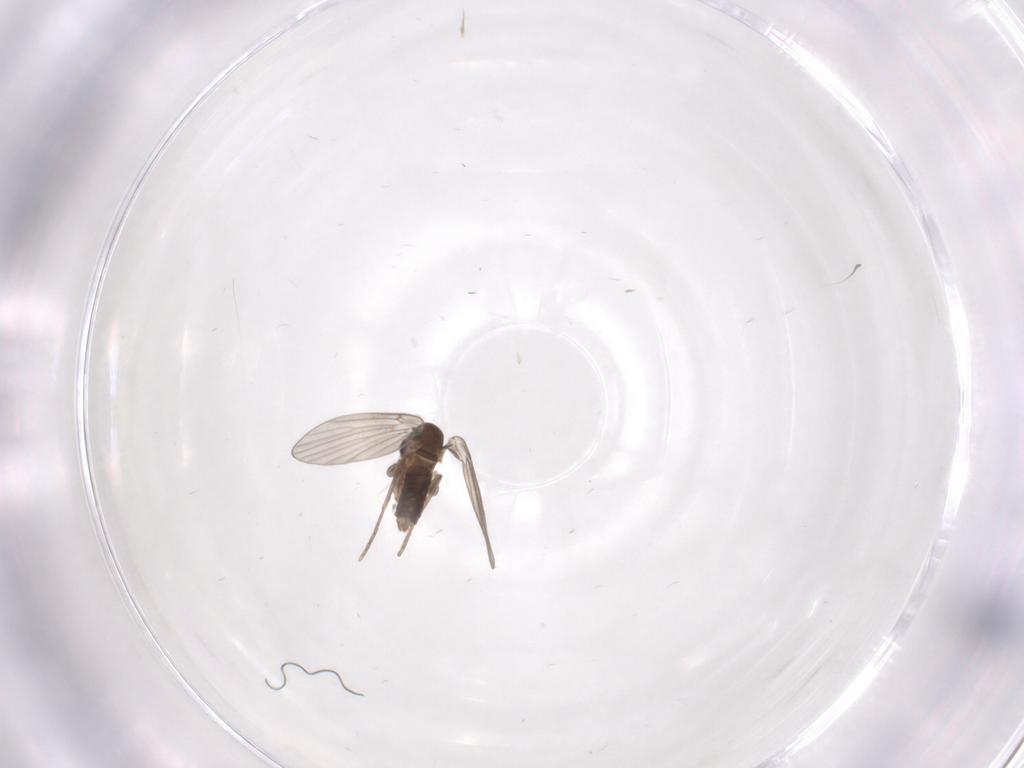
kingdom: Animalia
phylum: Arthropoda
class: Insecta
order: Diptera
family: Psychodidae
